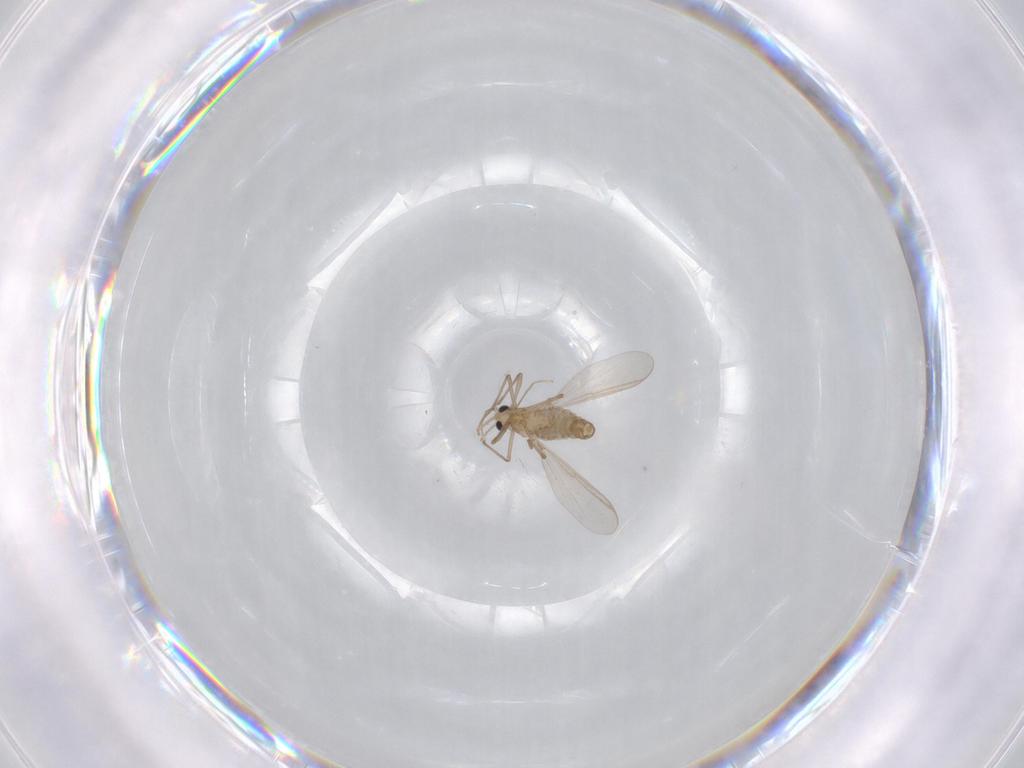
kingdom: Animalia
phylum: Arthropoda
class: Insecta
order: Diptera
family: Chironomidae
